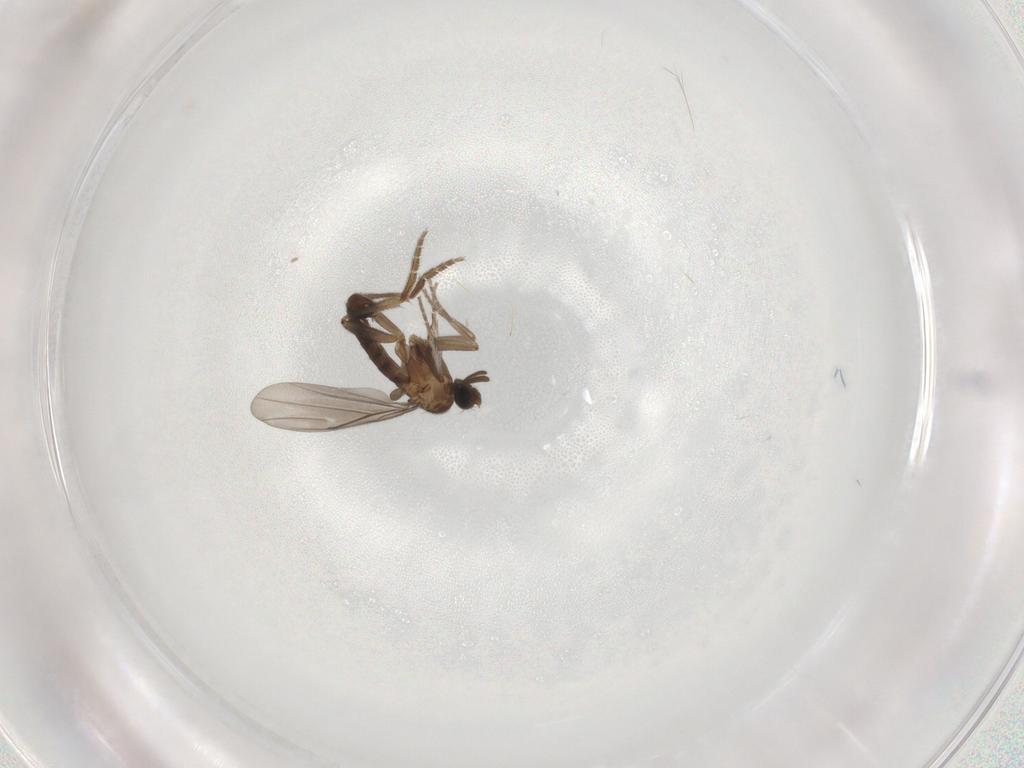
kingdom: Animalia
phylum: Arthropoda
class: Insecta
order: Diptera
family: Phoridae
